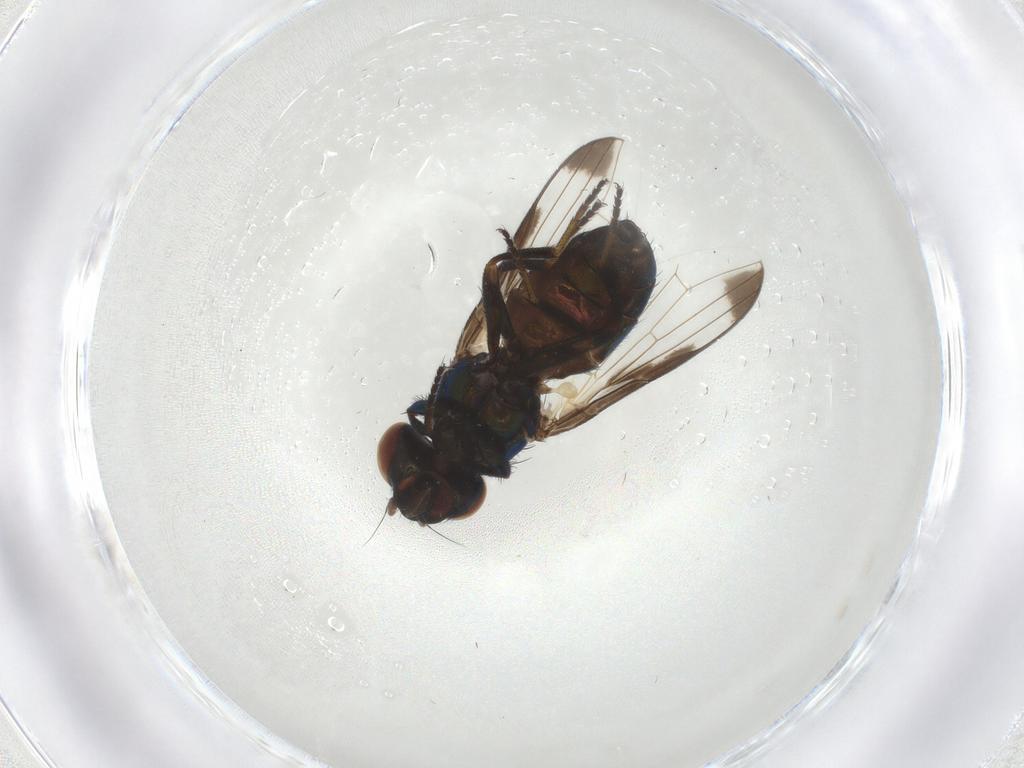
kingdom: Animalia
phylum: Arthropoda
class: Insecta
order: Diptera
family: Ulidiidae
